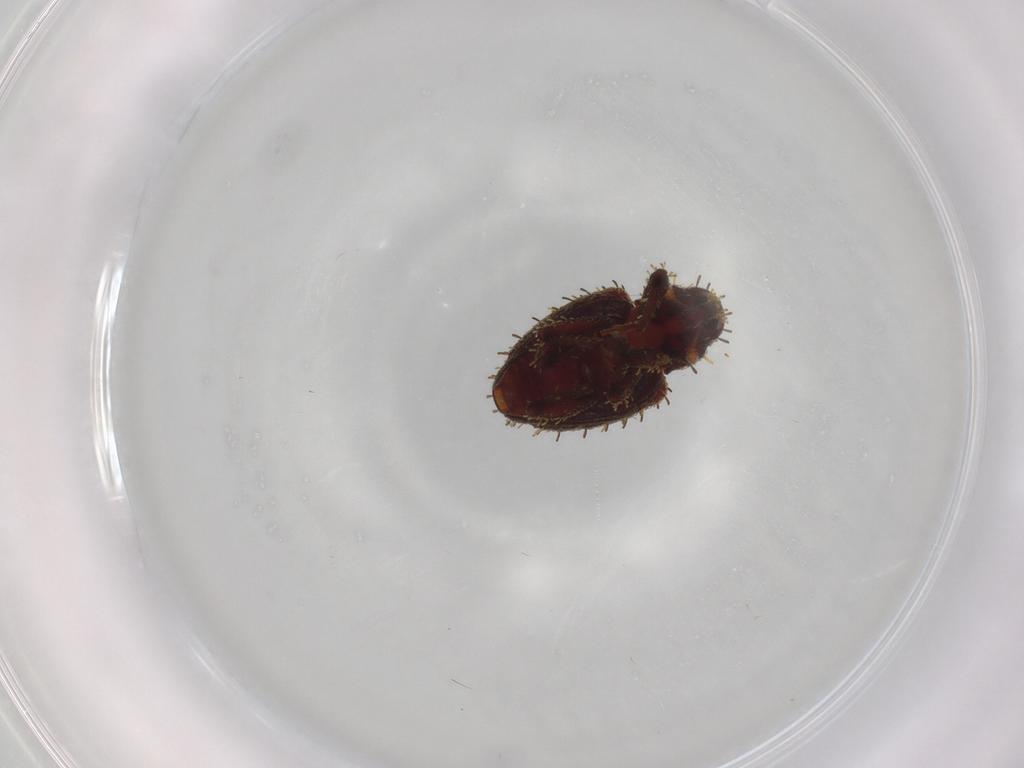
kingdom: Animalia
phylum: Arthropoda
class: Insecta
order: Coleoptera
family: Curculionidae
